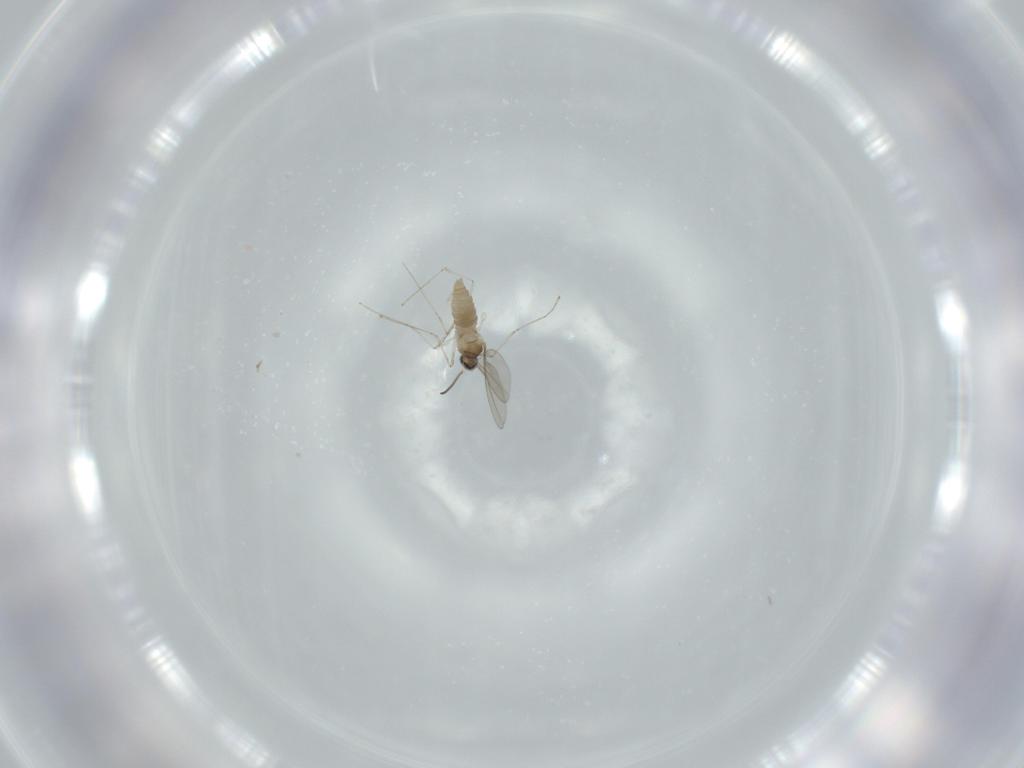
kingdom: Animalia
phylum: Arthropoda
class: Insecta
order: Diptera
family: Cecidomyiidae
